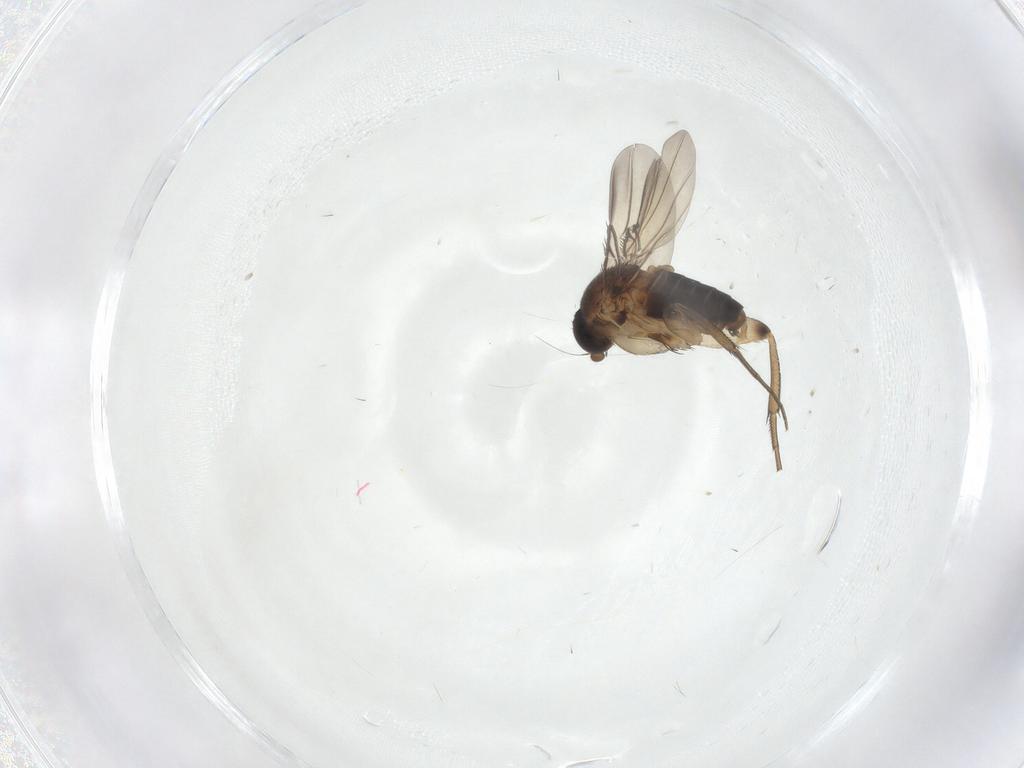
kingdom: Animalia
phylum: Arthropoda
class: Insecta
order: Diptera
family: Phoridae
